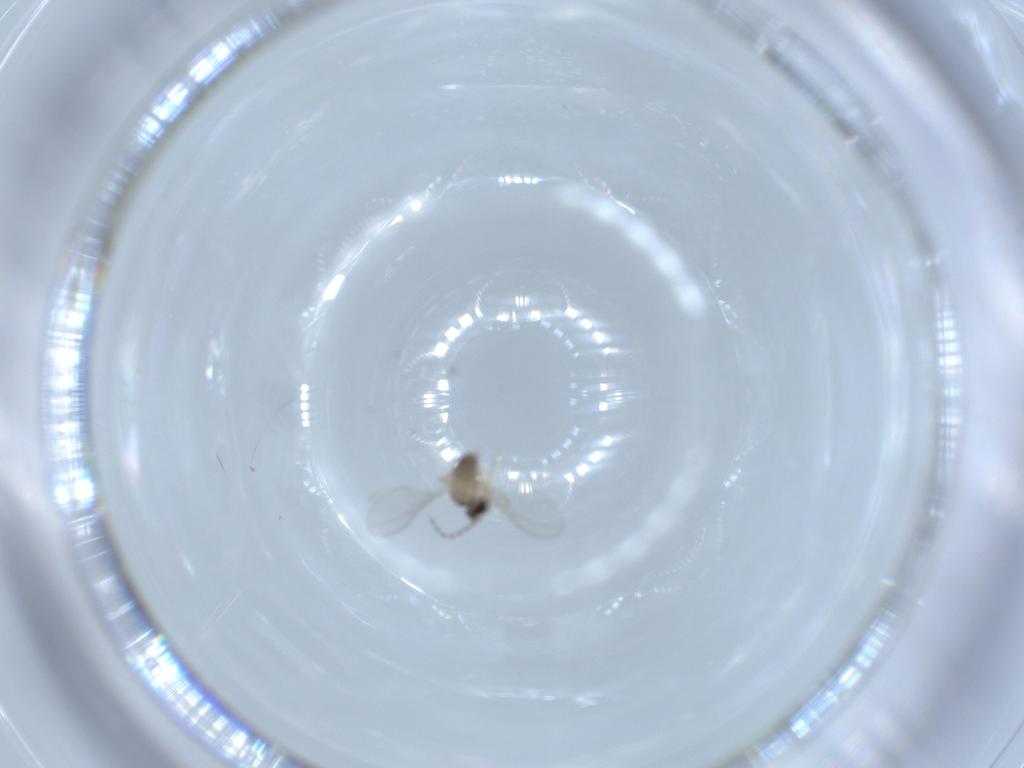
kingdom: Animalia
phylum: Arthropoda
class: Insecta
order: Diptera
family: Cecidomyiidae
